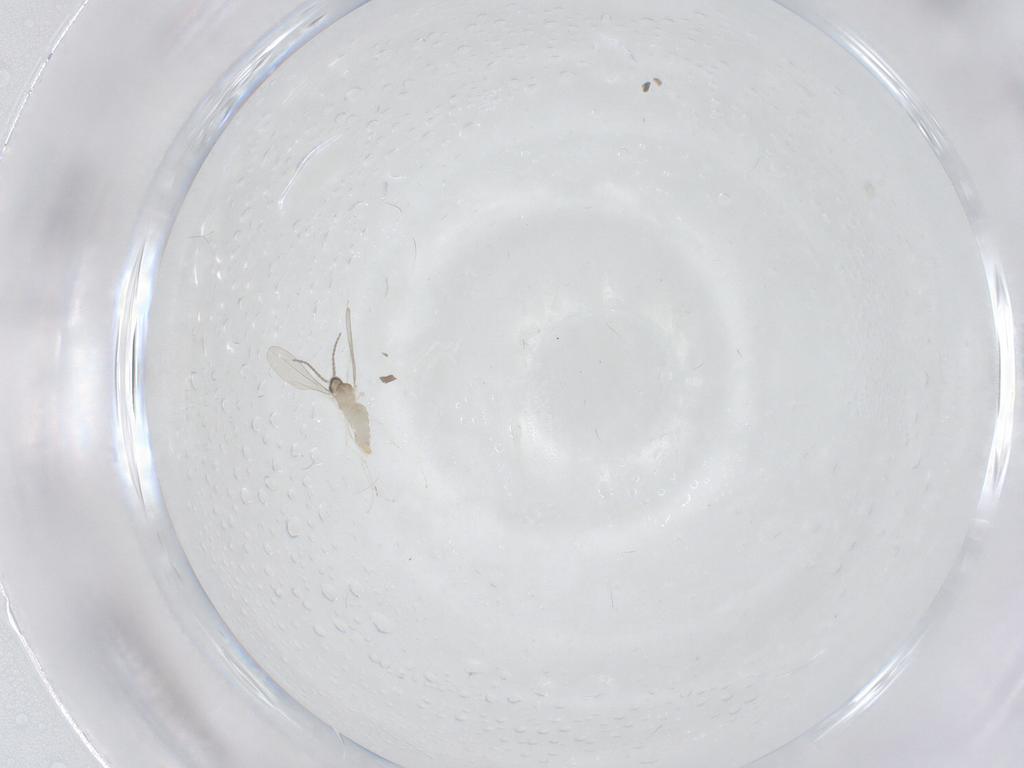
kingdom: Animalia
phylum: Arthropoda
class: Insecta
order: Diptera
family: Cecidomyiidae
